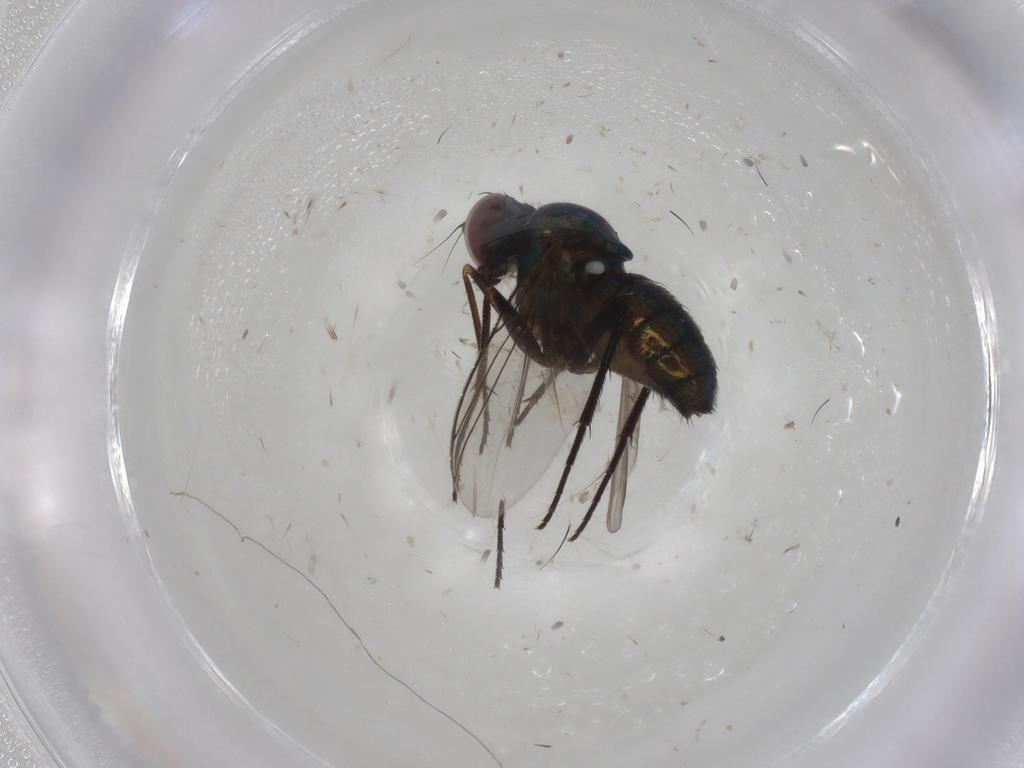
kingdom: Animalia
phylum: Arthropoda
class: Insecta
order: Diptera
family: Dolichopodidae
